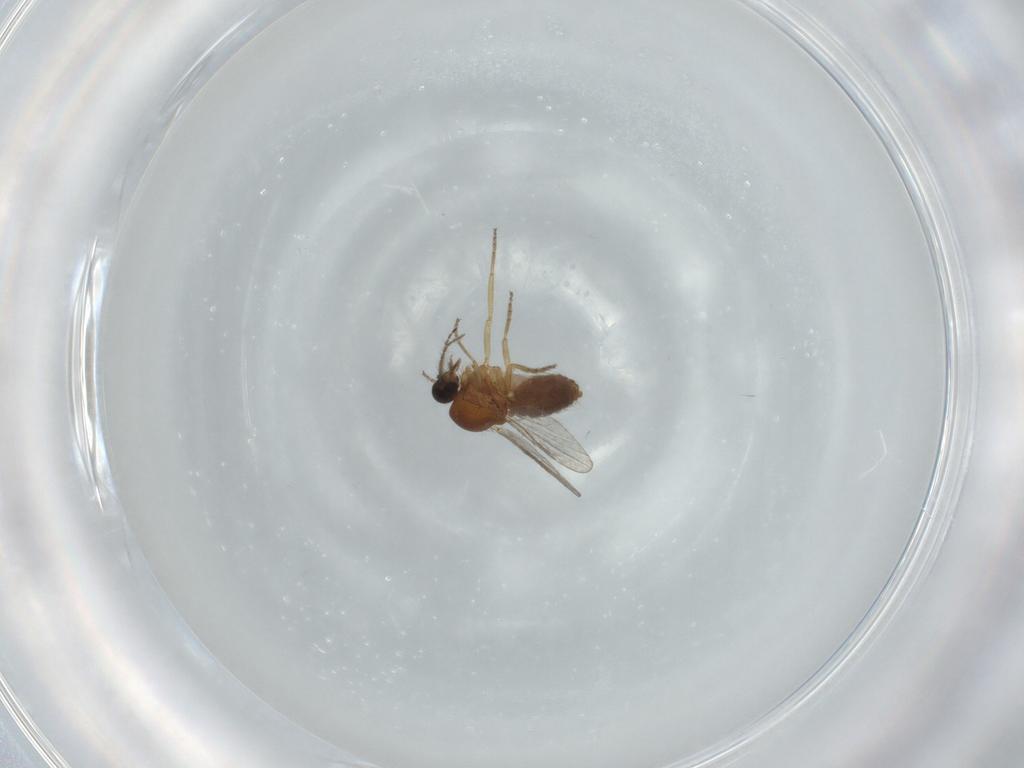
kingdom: Animalia
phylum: Arthropoda
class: Insecta
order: Diptera
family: Ceratopogonidae
